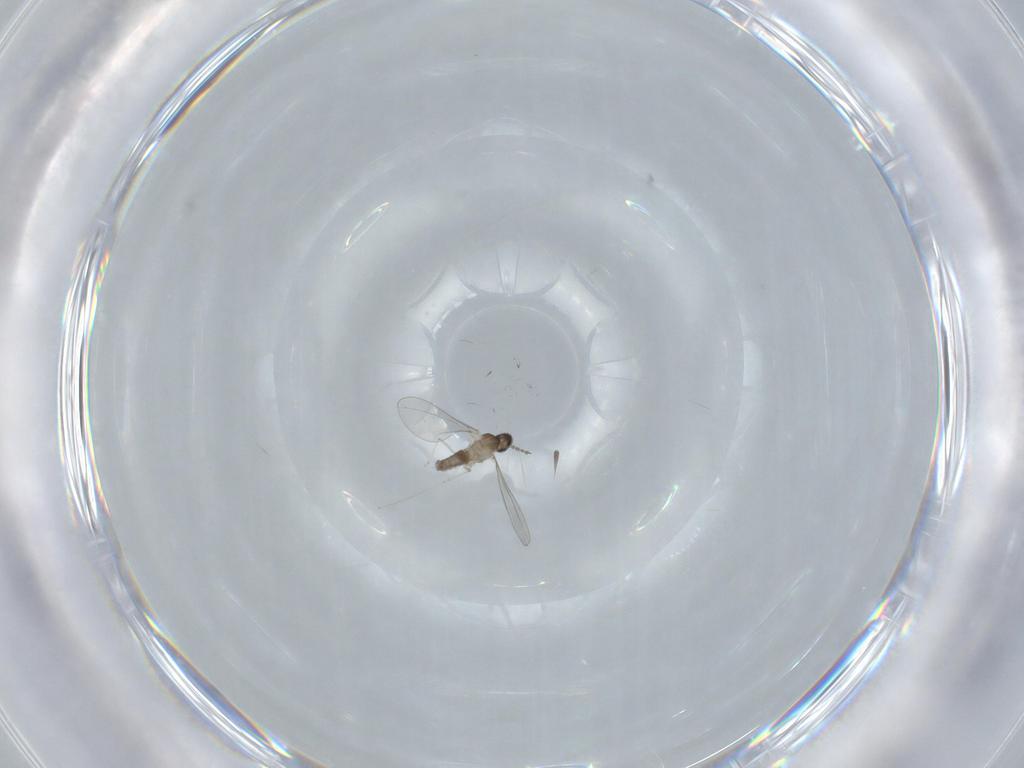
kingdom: Animalia
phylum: Arthropoda
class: Insecta
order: Diptera
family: Cecidomyiidae
